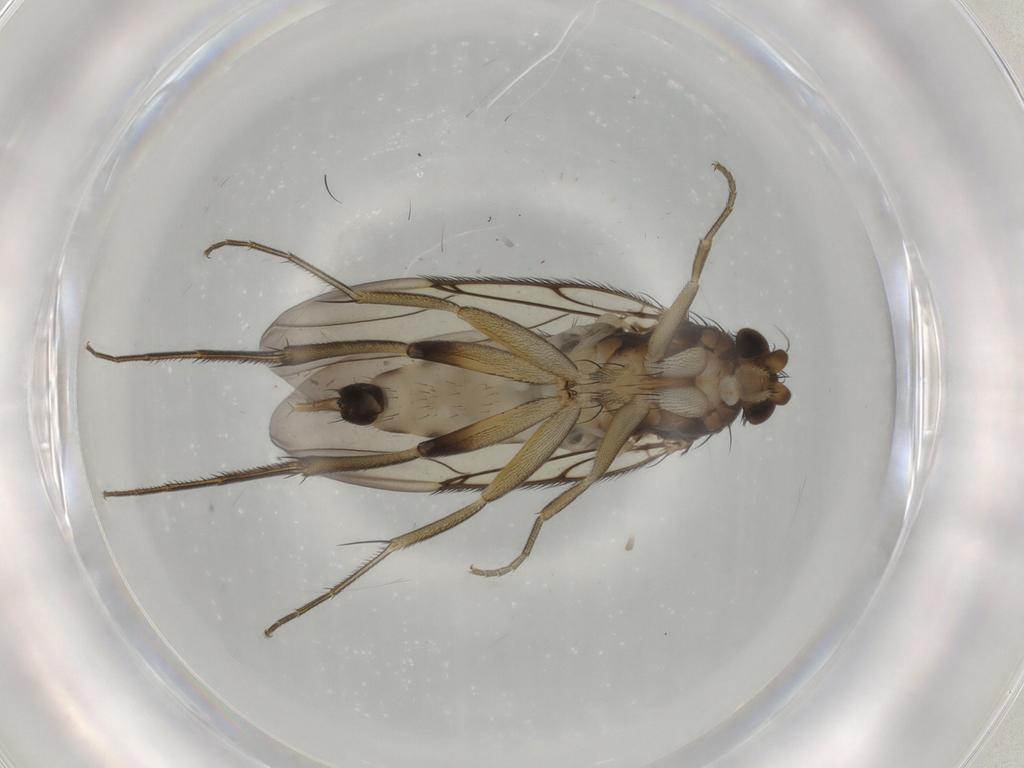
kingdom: Animalia
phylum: Arthropoda
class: Insecta
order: Diptera
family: Phoridae
